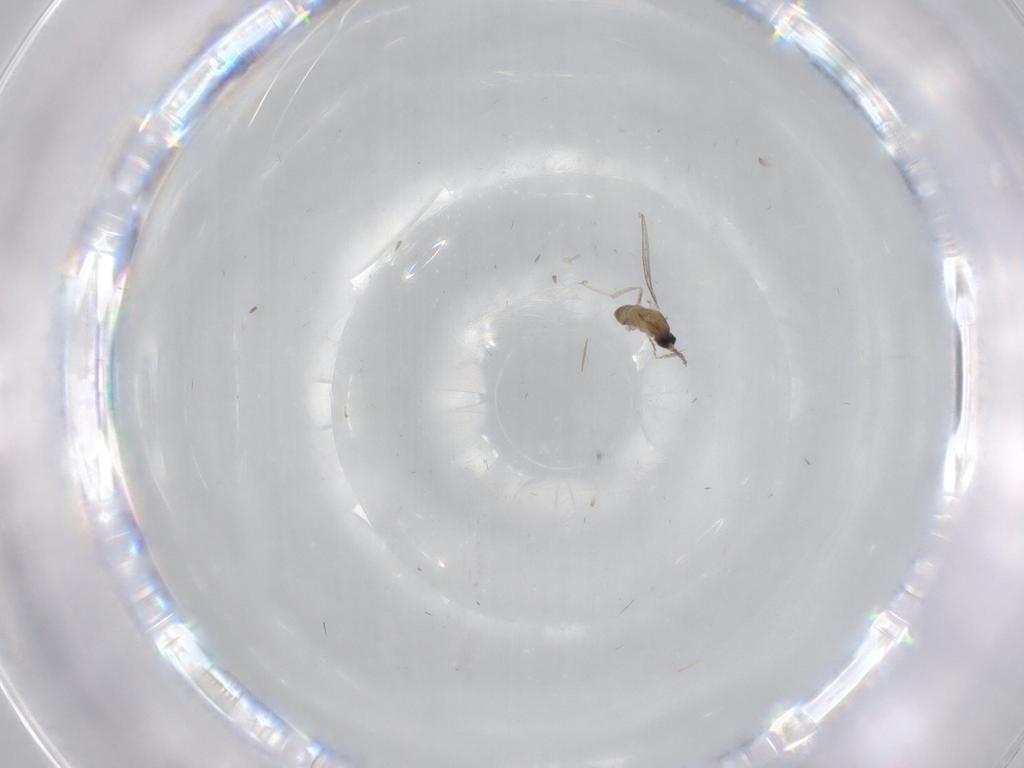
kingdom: Animalia
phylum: Arthropoda
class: Insecta
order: Diptera
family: Cecidomyiidae
